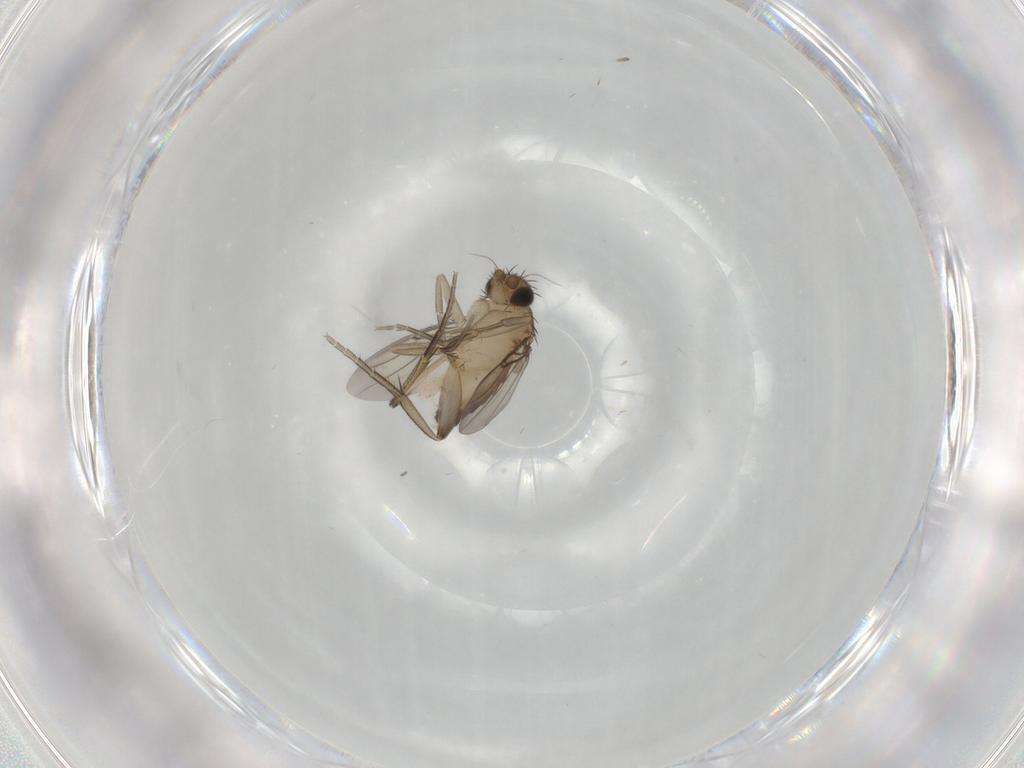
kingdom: Animalia
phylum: Arthropoda
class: Insecta
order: Diptera
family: Phoridae
